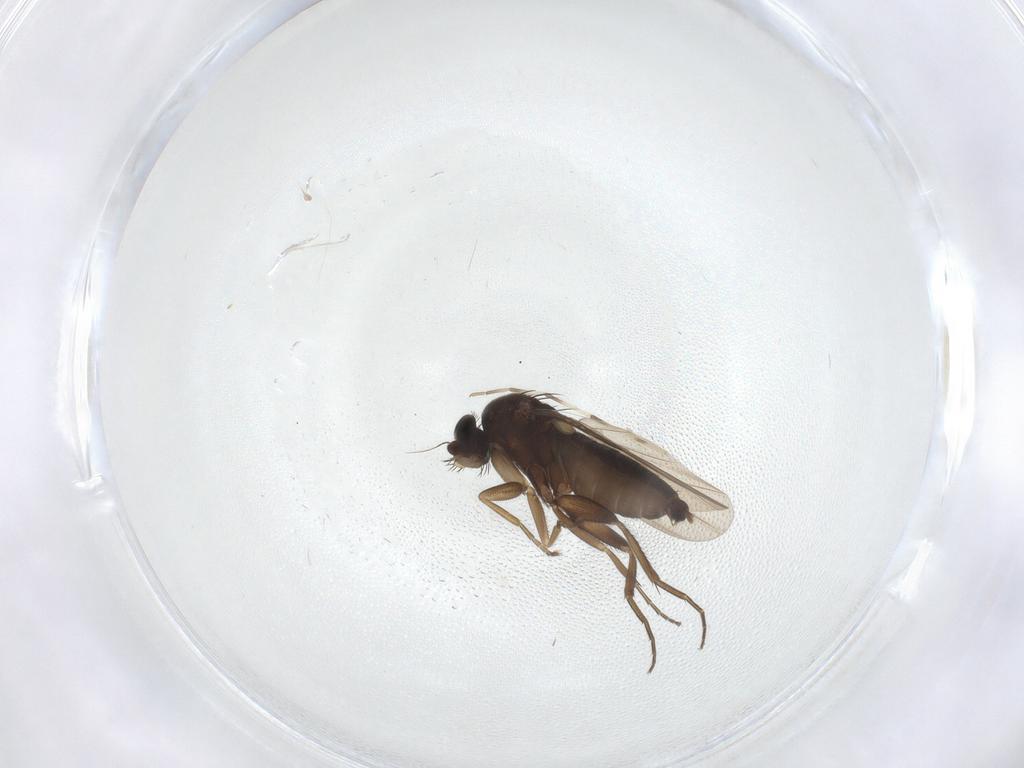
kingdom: Animalia
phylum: Arthropoda
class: Insecta
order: Diptera
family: Phoridae
